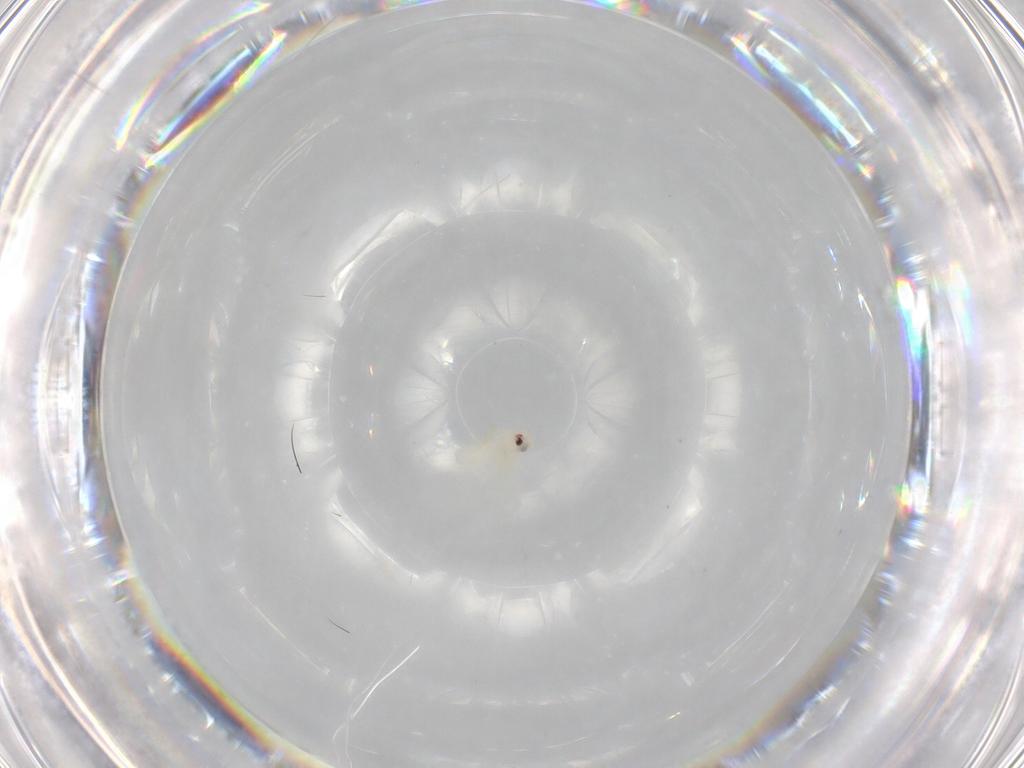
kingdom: Animalia
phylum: Arthropoda
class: Insecta
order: Hemiptera
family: Aleyrodidae
